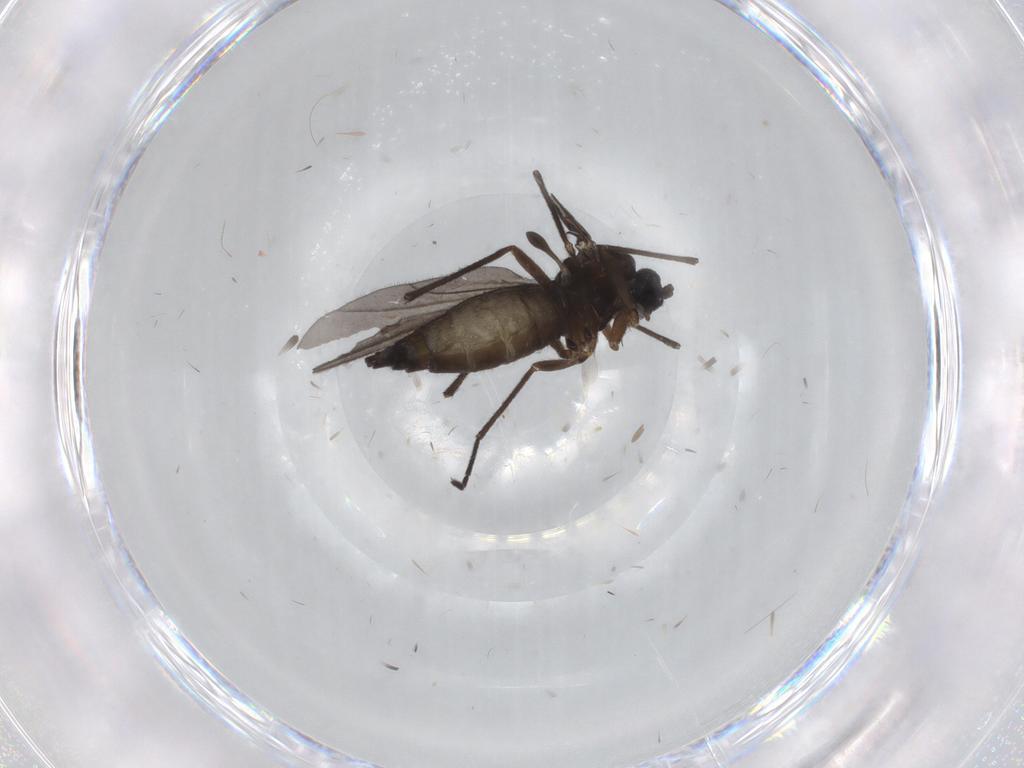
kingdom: Animalia
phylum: Arthropoda
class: Insecta
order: Diptera
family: Sciaridae
